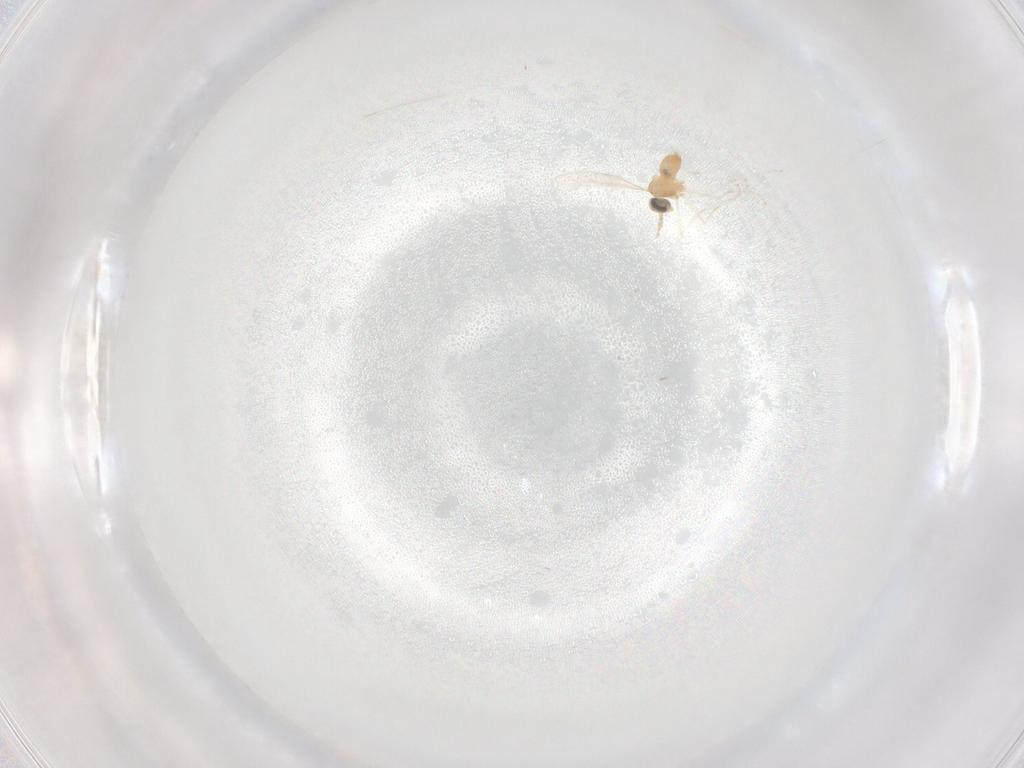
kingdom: Animalia
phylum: Arthropoda
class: Insecta
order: Diptera
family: Cecidomyiidae
